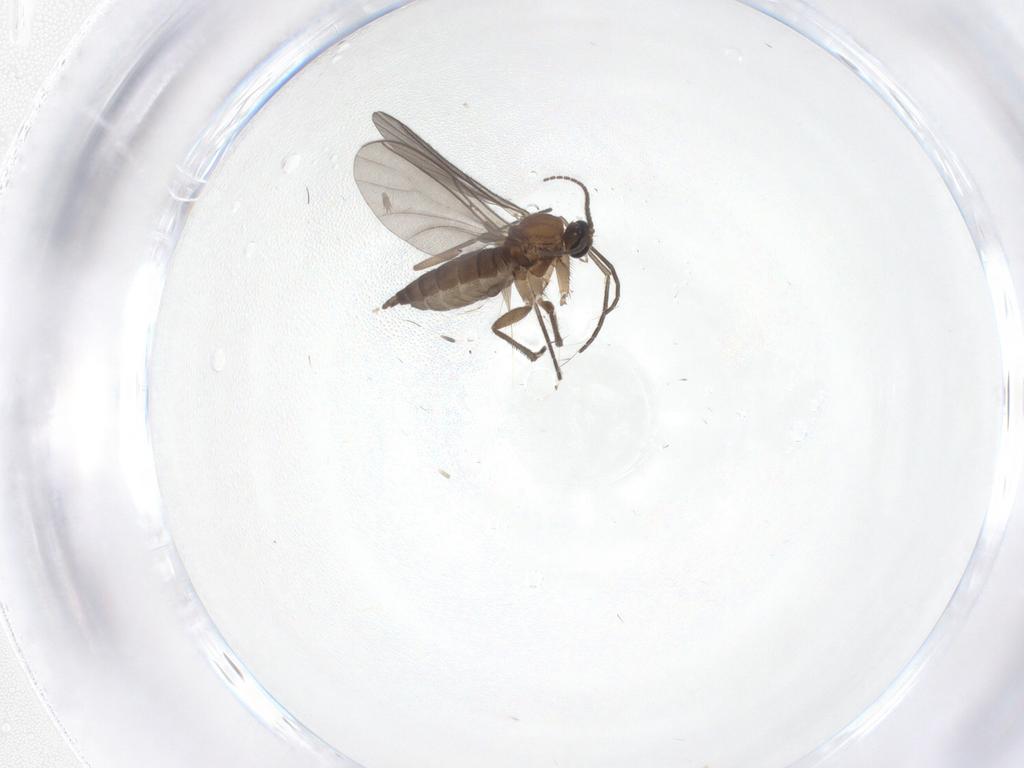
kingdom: Animalia
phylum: Arthropoda
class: Insecta
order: Diptera
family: Sciaridae
